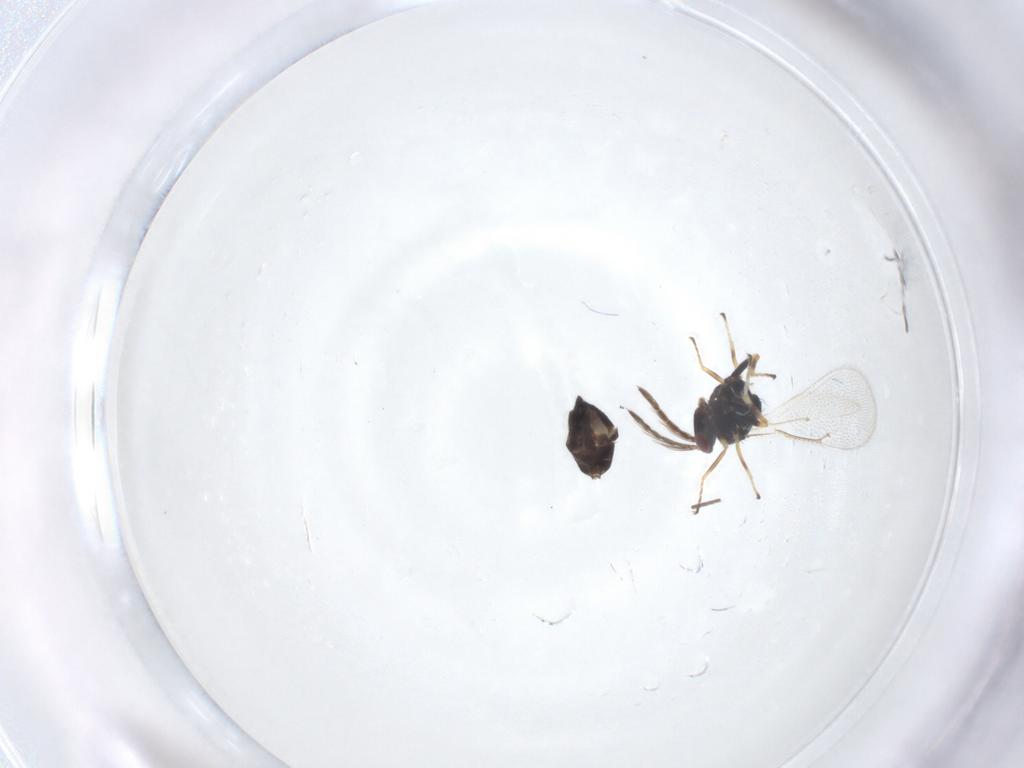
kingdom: Animalia
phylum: Arthropoda
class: Insecta
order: Hymenoptera
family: Eulophidae
